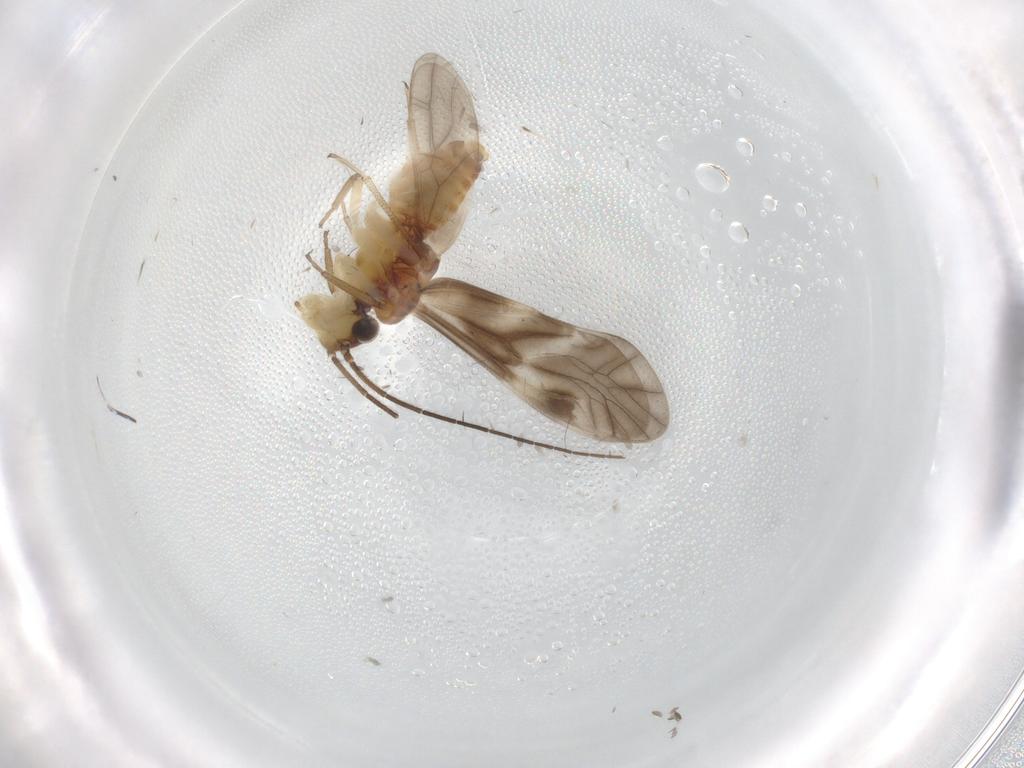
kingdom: Animalia
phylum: Arthropoda
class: Insecta
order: Psocodea
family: Caeciliusidae
